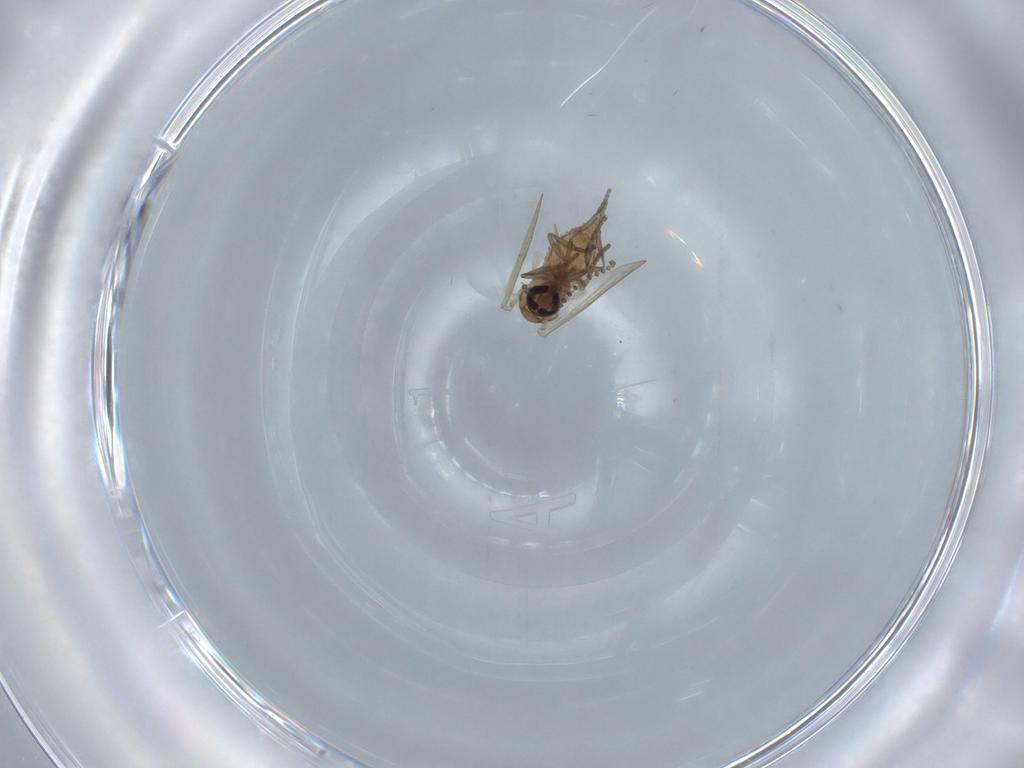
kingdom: Animalia
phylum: Arthropoda
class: Insecta
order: Diptera
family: Psychodidae
